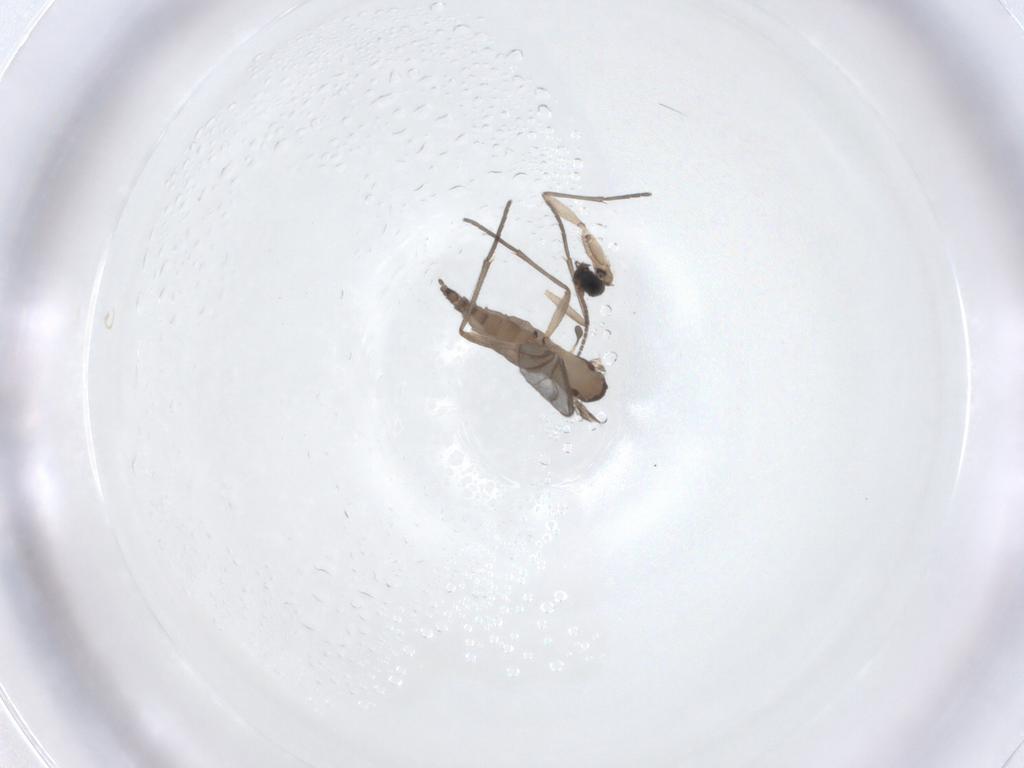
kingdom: Animalia
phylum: Arthropoda
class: Insecta
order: Diptera
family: Sciaridae
